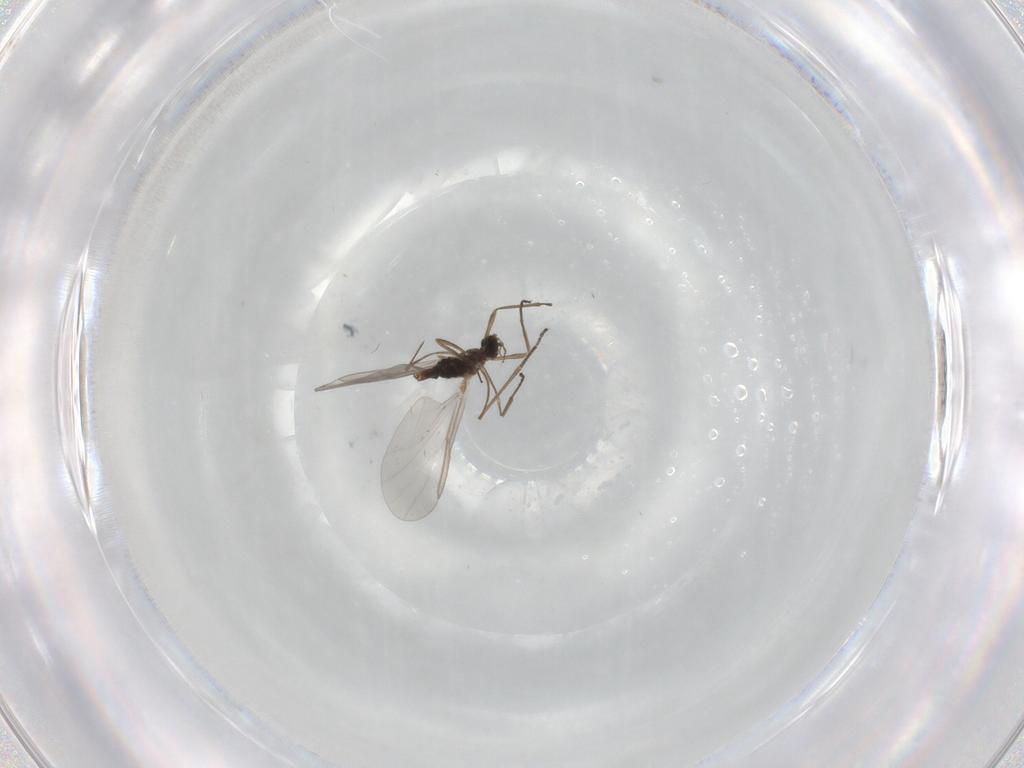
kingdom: Animalia
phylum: Arthropoda
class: Insecta
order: Diptera
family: Cecidomyiidae
